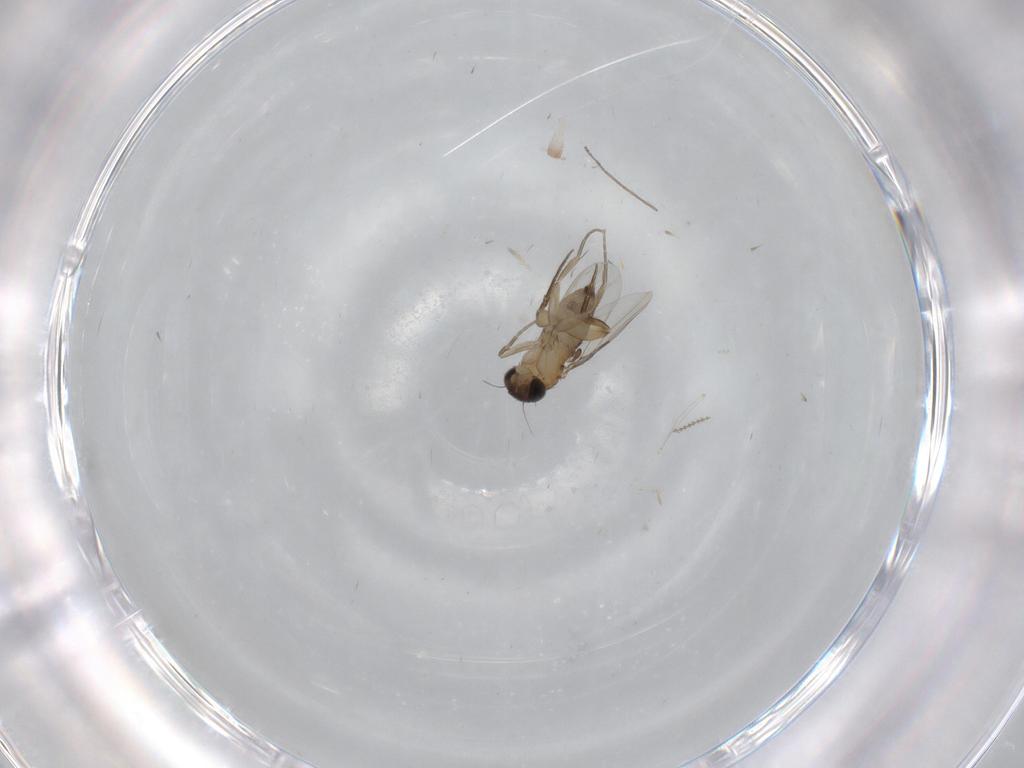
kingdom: Animalia
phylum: Arthropoda
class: Insecta
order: Diptera
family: Phoridae
